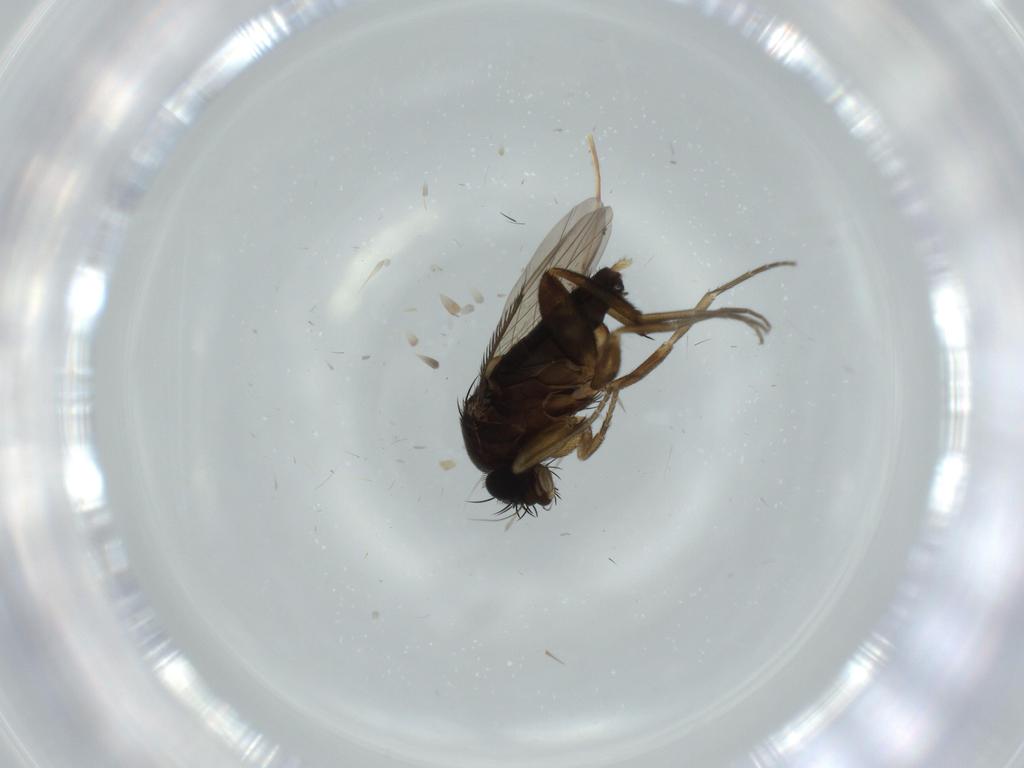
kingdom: Animalia
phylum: Arthropoda
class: Insecta
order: Diptera
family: Phoridae
